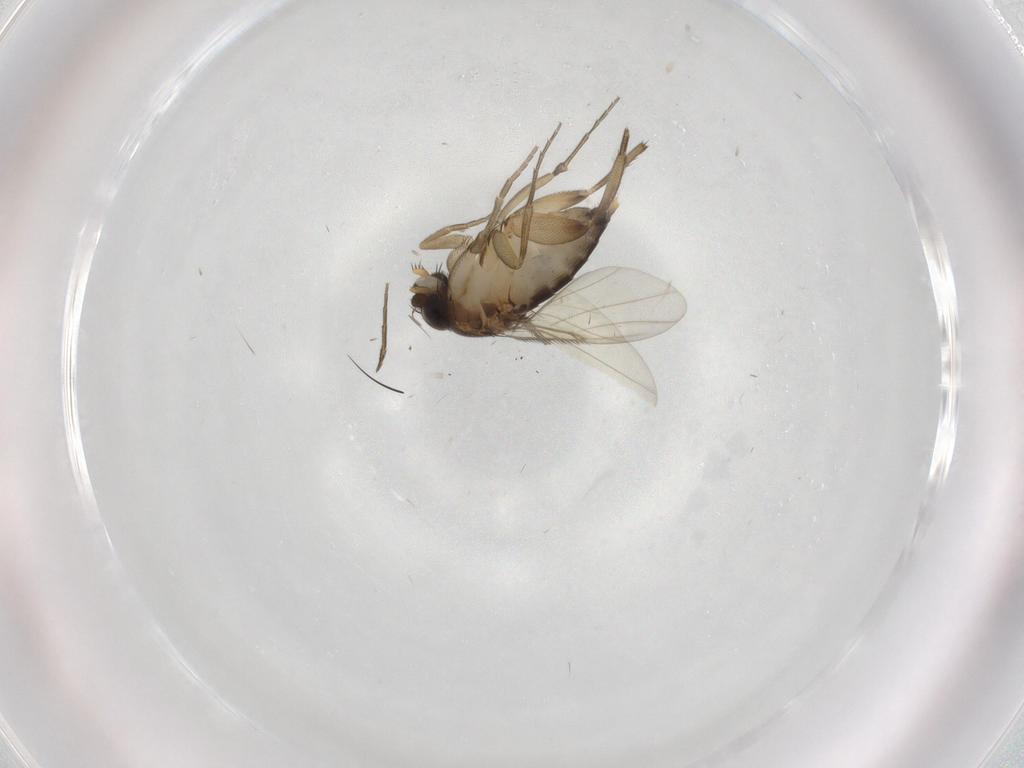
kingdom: Animalia
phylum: Arthropoda
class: Insecta
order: Diptera
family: Phoridae
